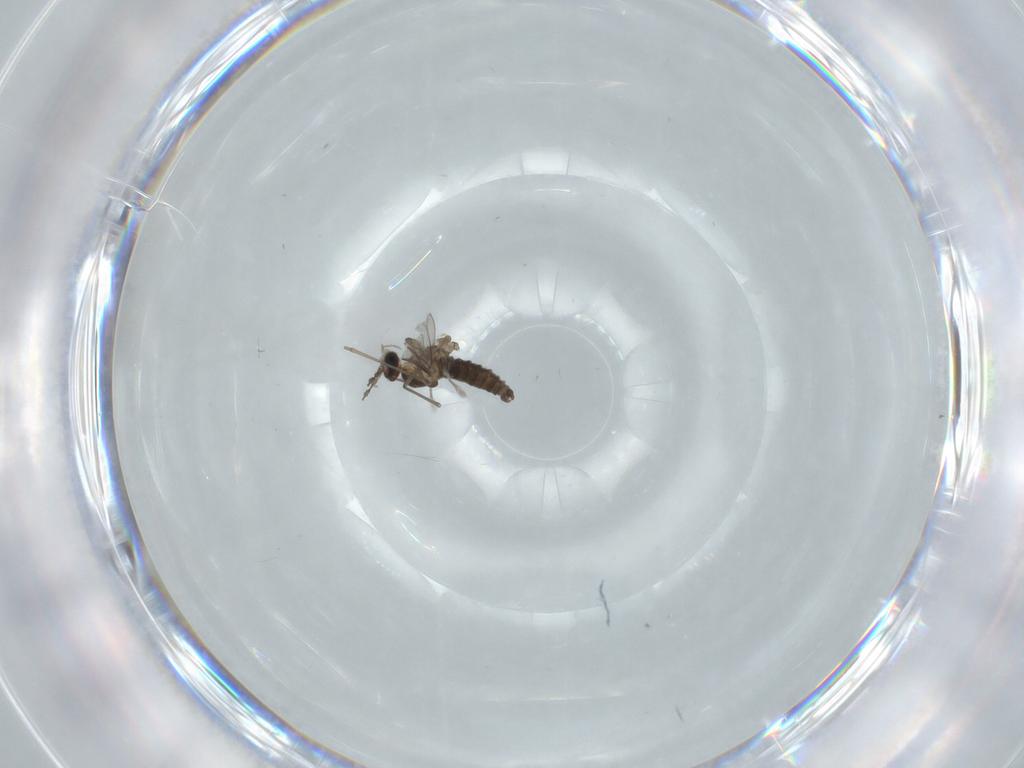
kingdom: Animalia
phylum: Arthropoda
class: Insecta
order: Diptera
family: Cecidomyiidae
